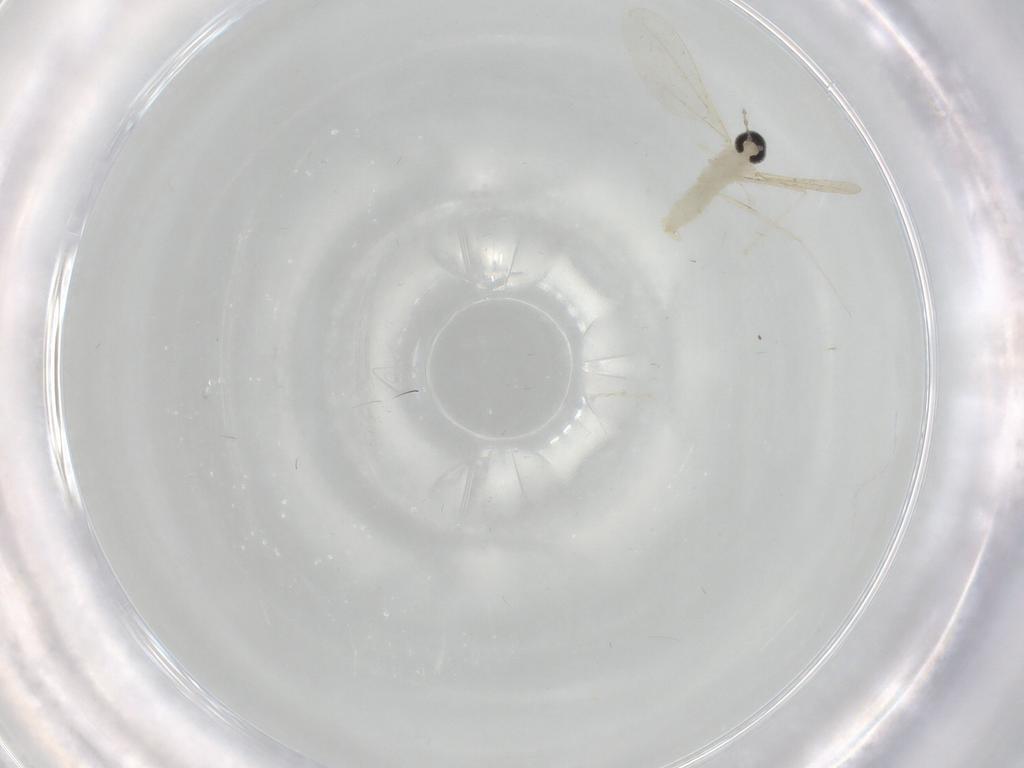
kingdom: Animalia
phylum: Arthropoda
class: Insecta
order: Diptera
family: Cecidomyiidae
